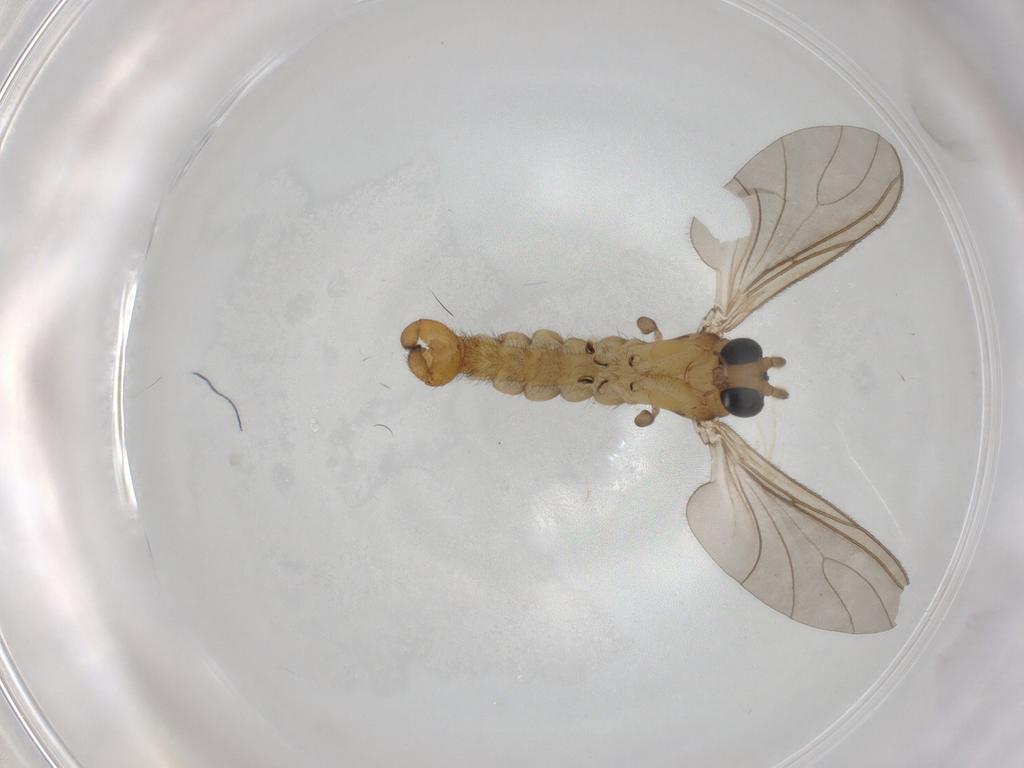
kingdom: Animalia
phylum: Arthropoda
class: Insecta
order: Diptera
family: Sciaridae
